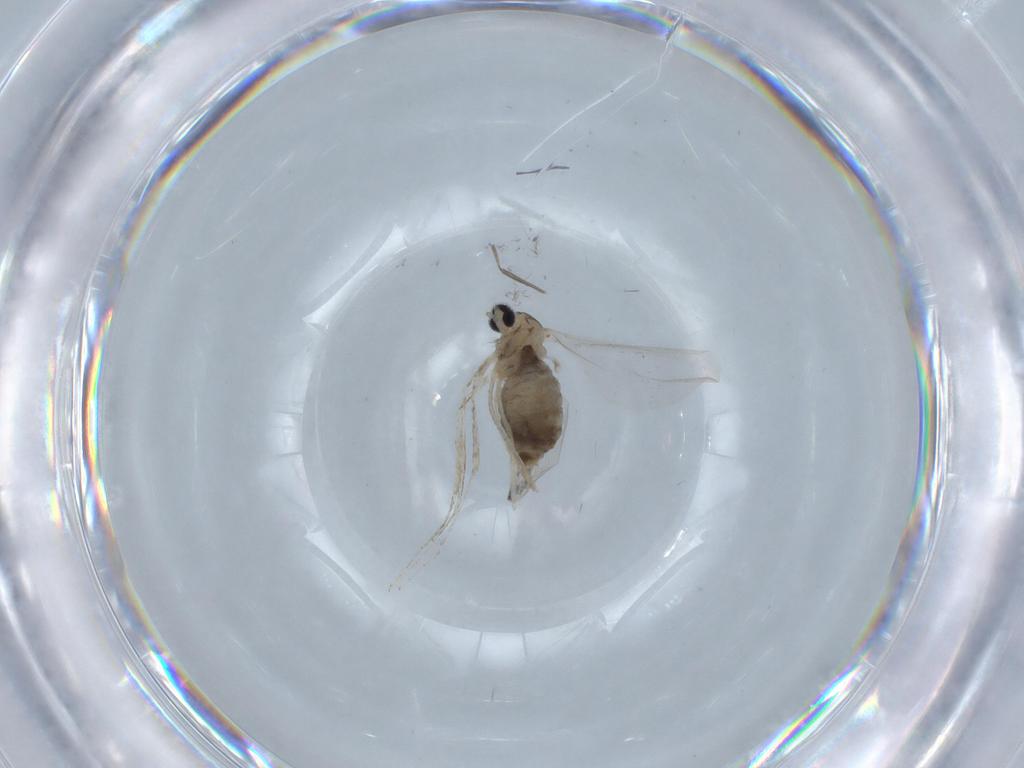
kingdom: Animalia
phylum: Arthropoda
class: Insecta
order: Diptera
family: Cecidomyiidae
